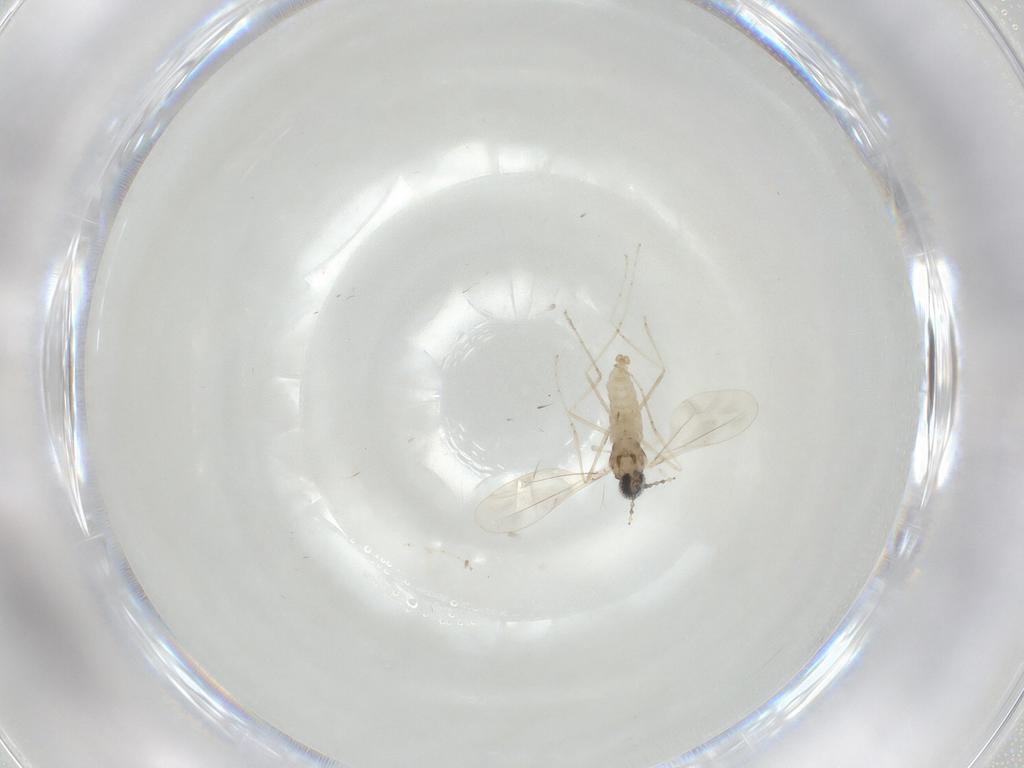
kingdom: Animalia
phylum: Arthropoda
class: Insecta
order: Diptera
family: Cecidomyiidae
